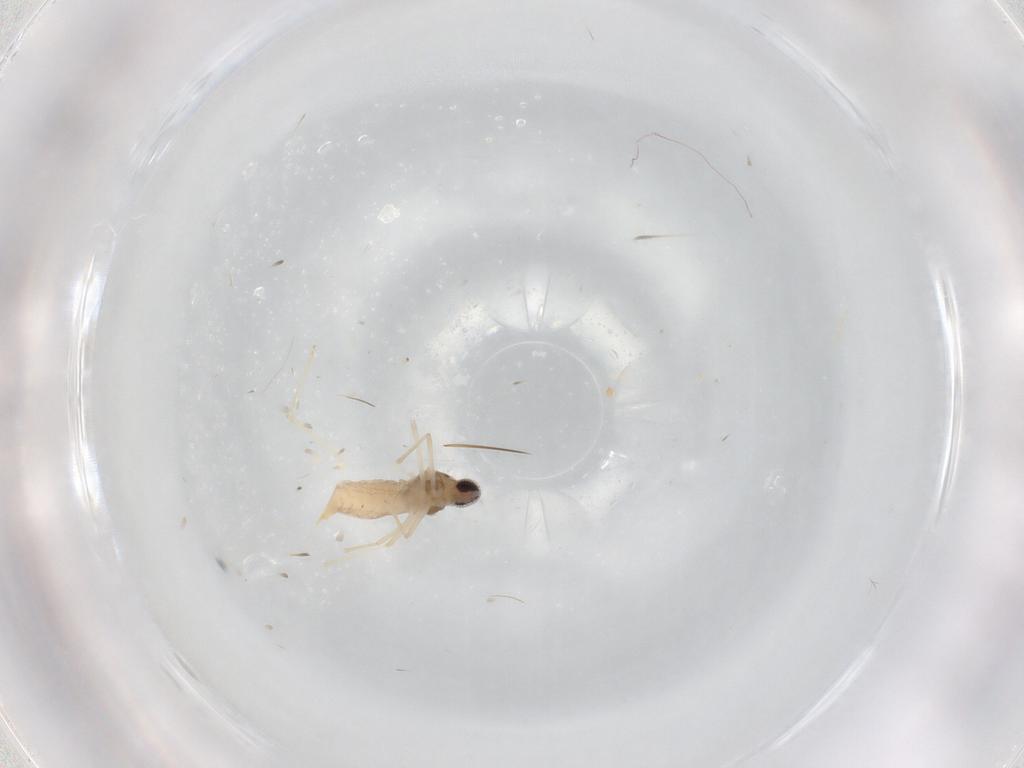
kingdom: Animalia
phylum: Arthropoda
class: Insecta
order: Diptera
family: Cecidomyiidae
